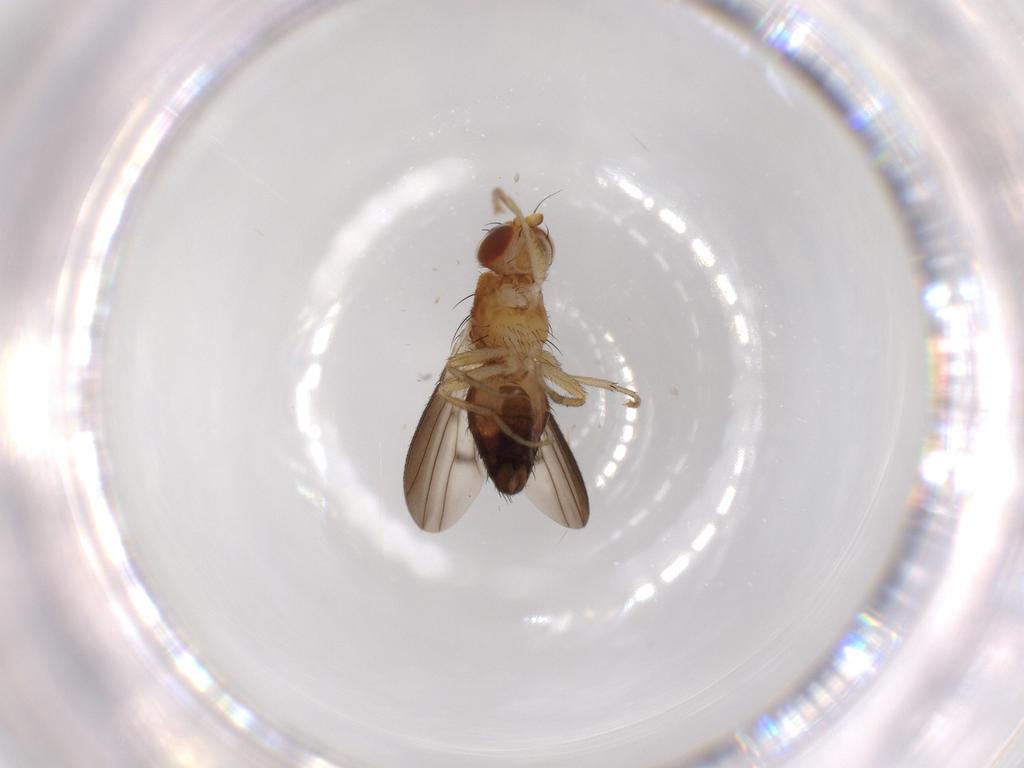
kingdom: Animalia
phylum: Arthropoda
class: Insecta
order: Diptera
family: Heleomyzidae
